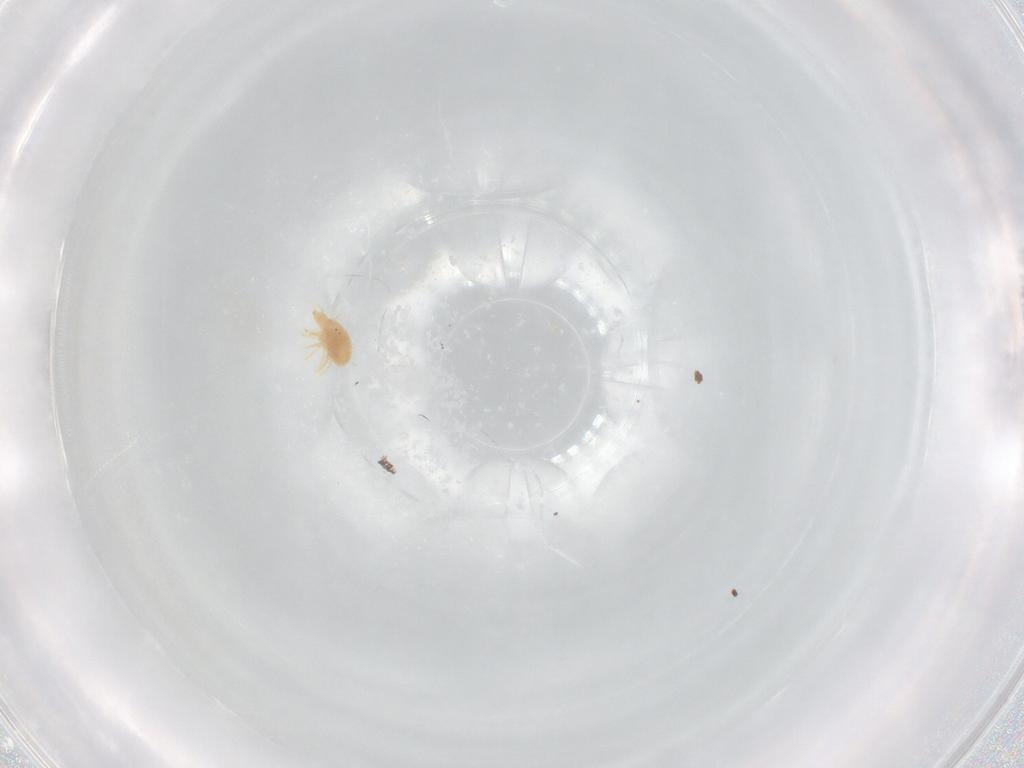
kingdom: Animalia
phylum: Arthropoda
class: Arachnida
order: Trombidiformes
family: Bdellidae
